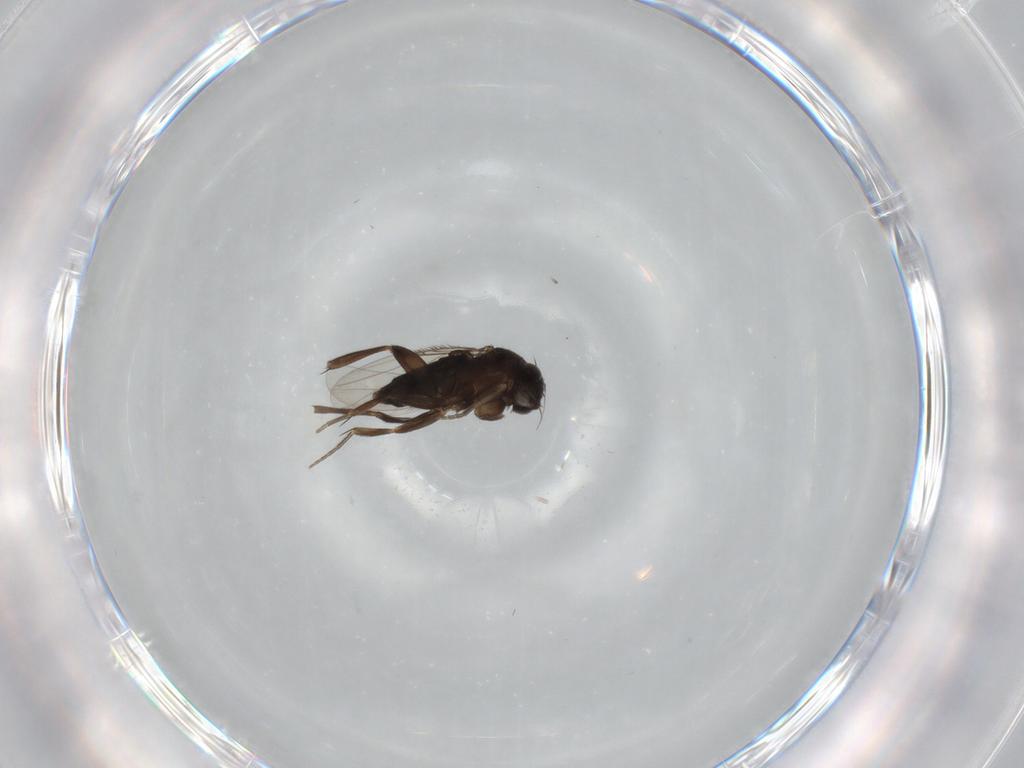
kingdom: Animalia
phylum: Arthropoda
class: Insecta
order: Diptera
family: Phoridae
